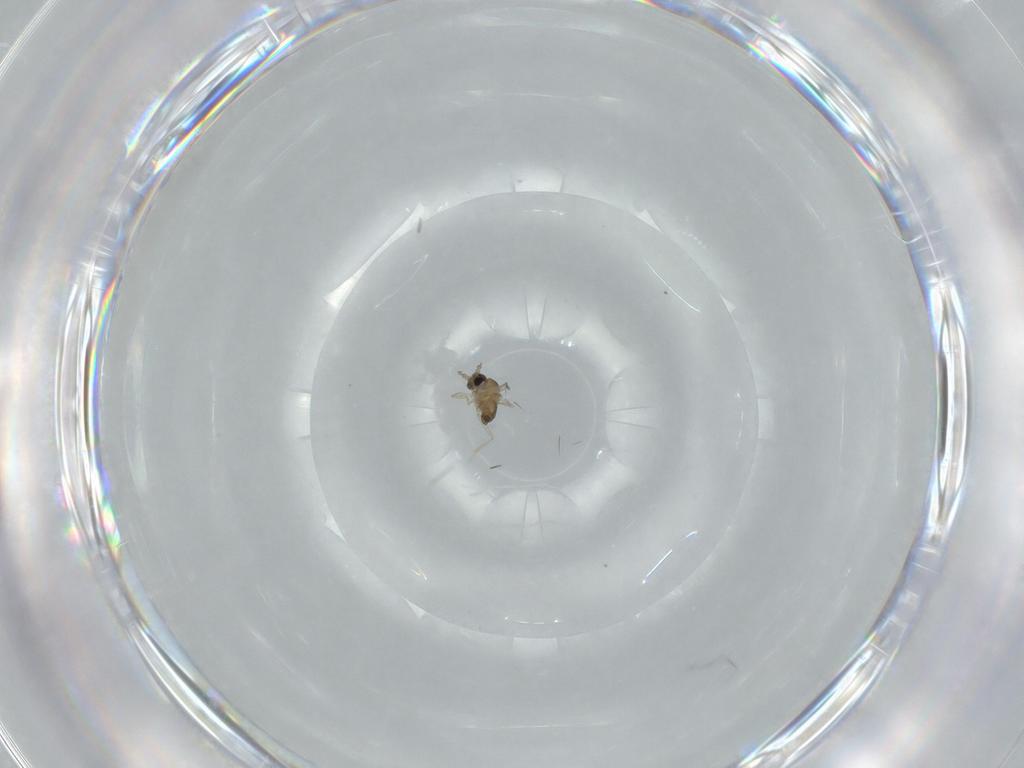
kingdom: Animalia
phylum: Arthropoda
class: Insecta
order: Diptera
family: Cecidomyiidae
